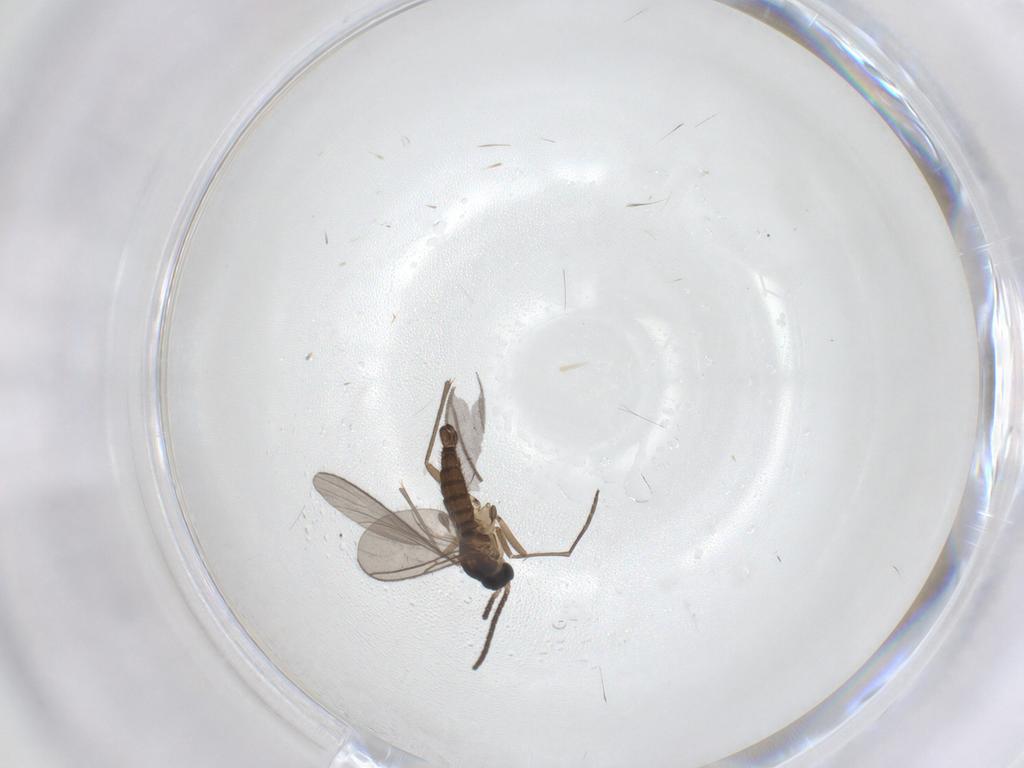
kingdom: Animalia
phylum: Arthropoda
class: Insecta
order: Diptera
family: Sciaridae
